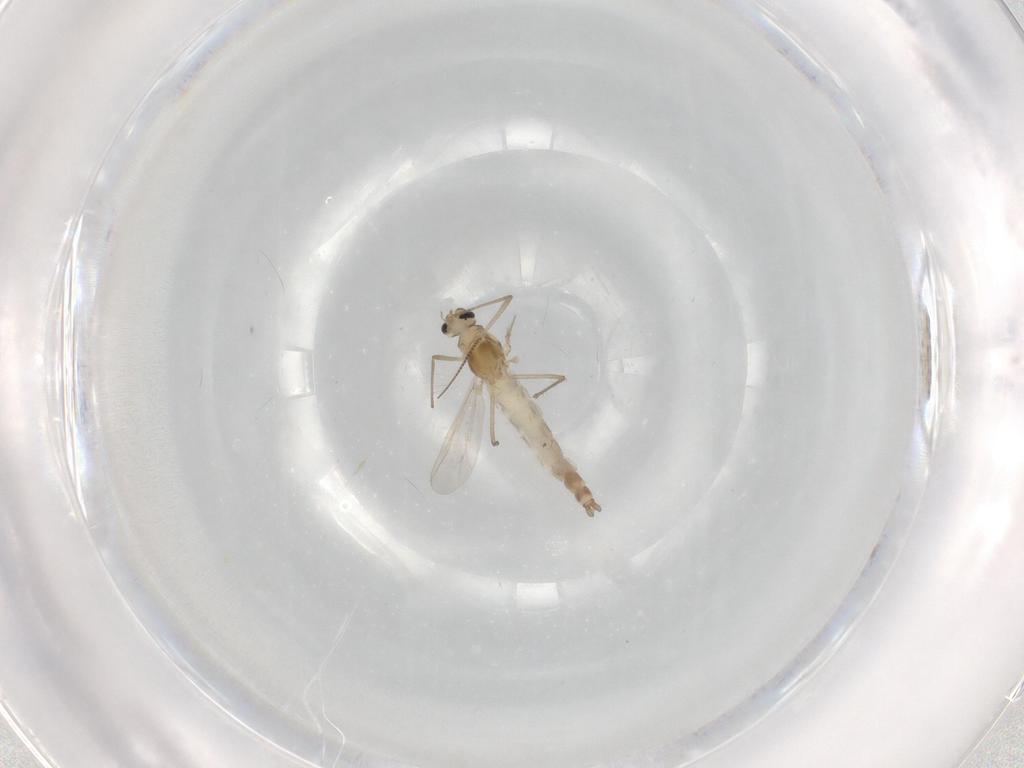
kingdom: Animalia
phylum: Arthropoda
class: Insecta
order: Diptera
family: Chironomidae
